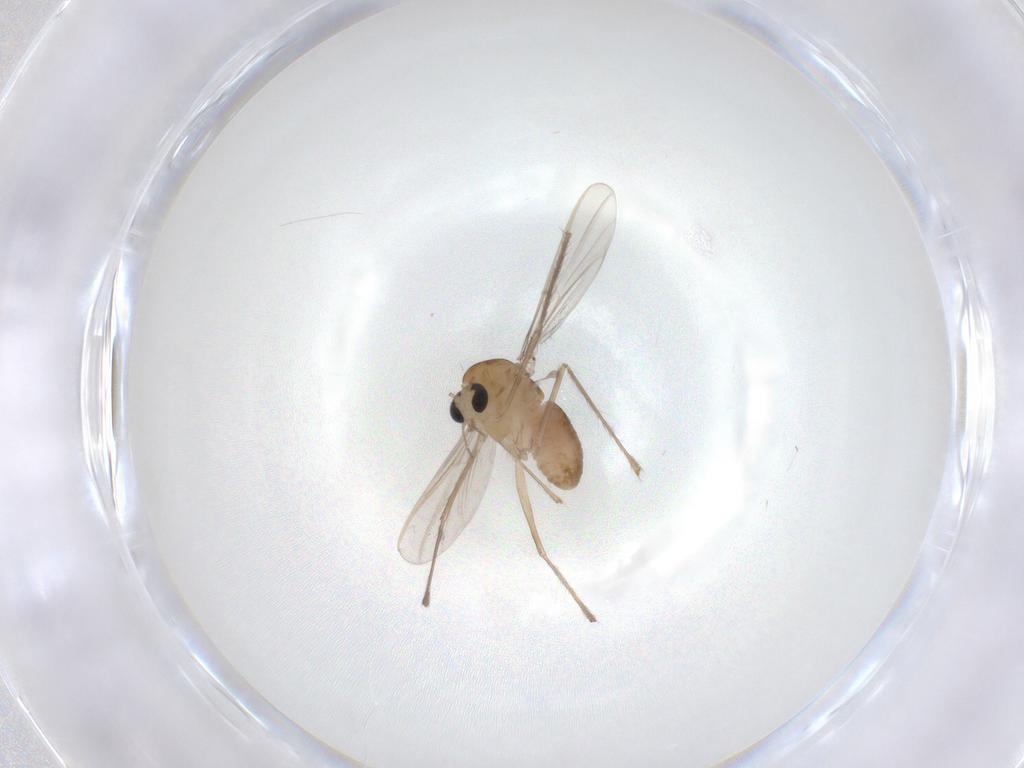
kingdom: Animalia
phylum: Arthropoda
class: Insecta
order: Diptera
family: Chironomidae
